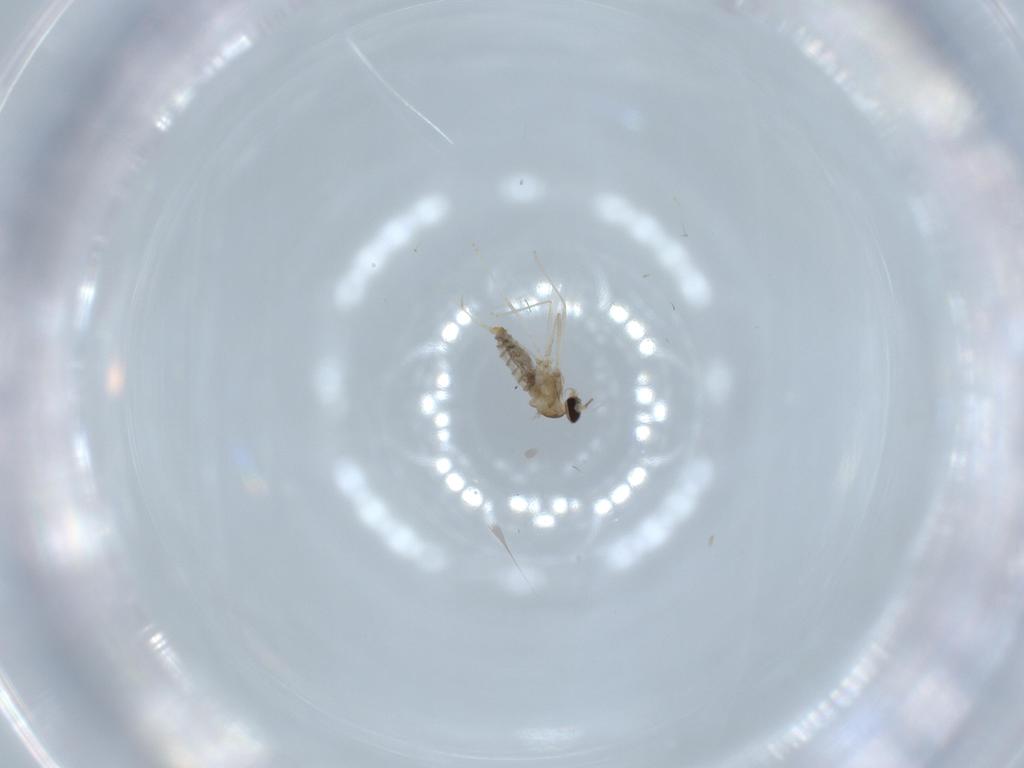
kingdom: Animalia
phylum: Arthropoda
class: Insecta
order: Diptera
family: Cecidomyiidae
